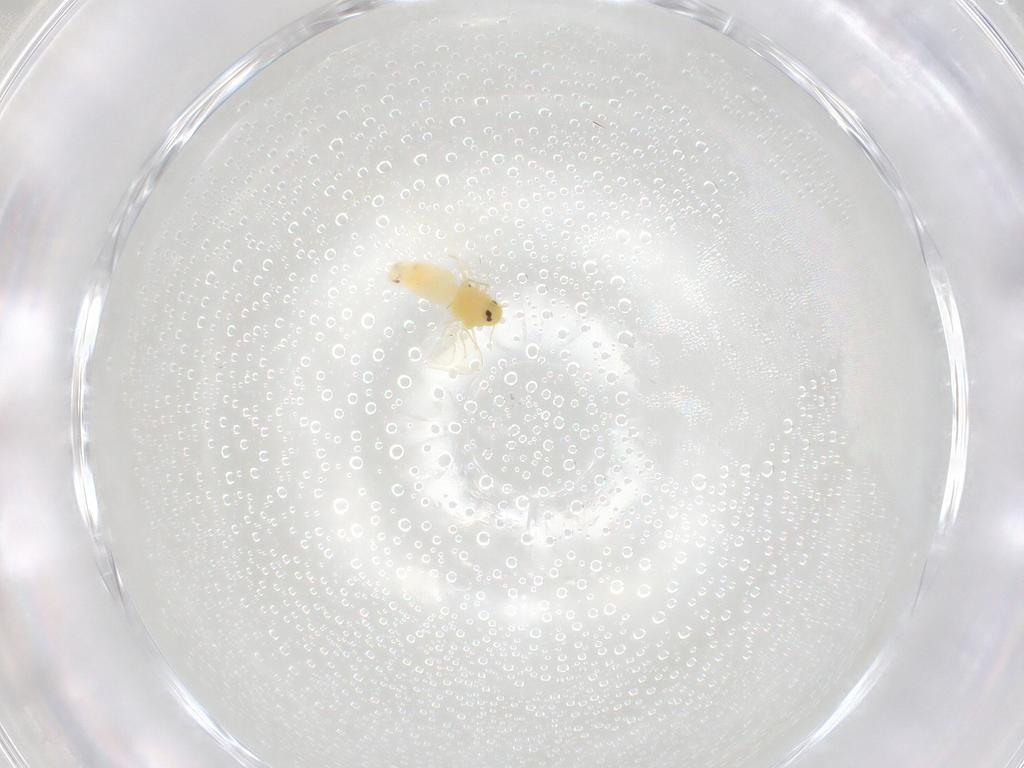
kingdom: Animalia
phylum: Arthropoda
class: Insecta
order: Hemiptera
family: Aleyrodidae
